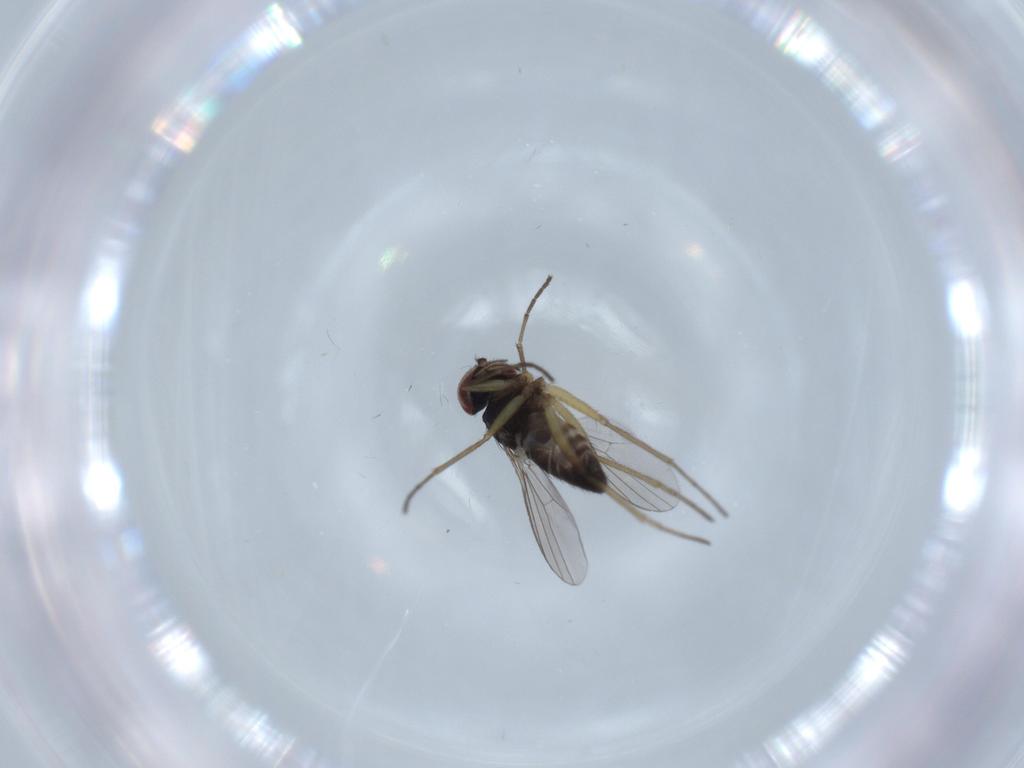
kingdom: Animalia
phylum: Arthropoda
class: Insecta
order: Diptera
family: Dolichopodidae
